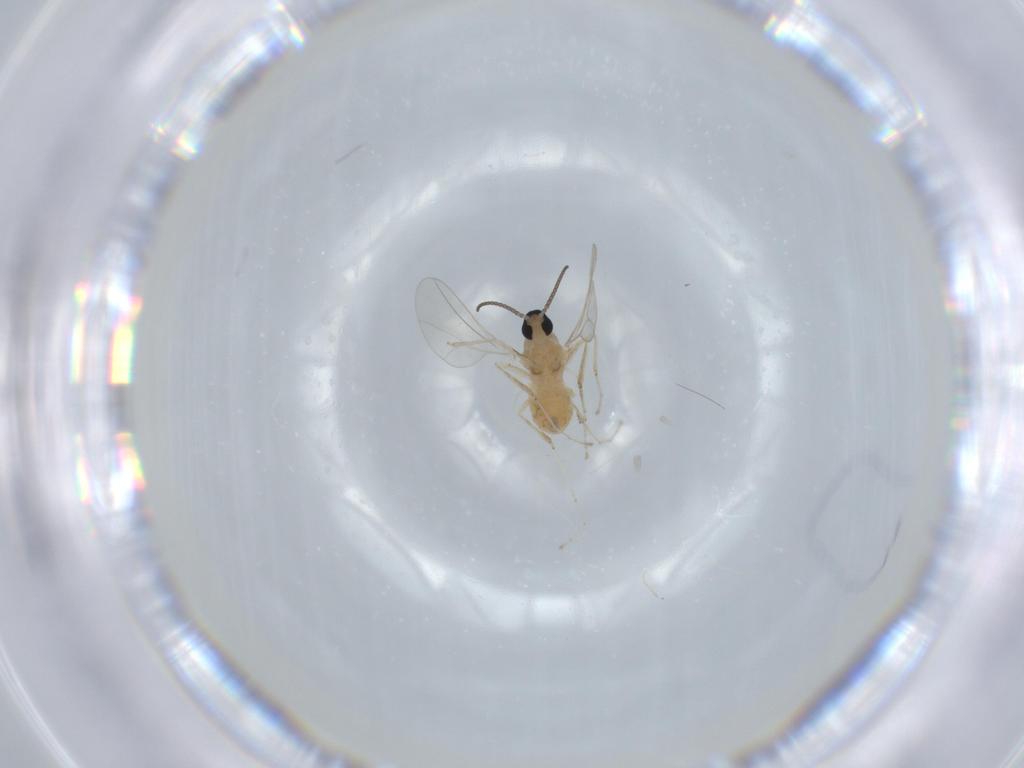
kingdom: Animalia
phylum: Arthropoda
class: Insecta
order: Diptera
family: Cecidomyiidae
